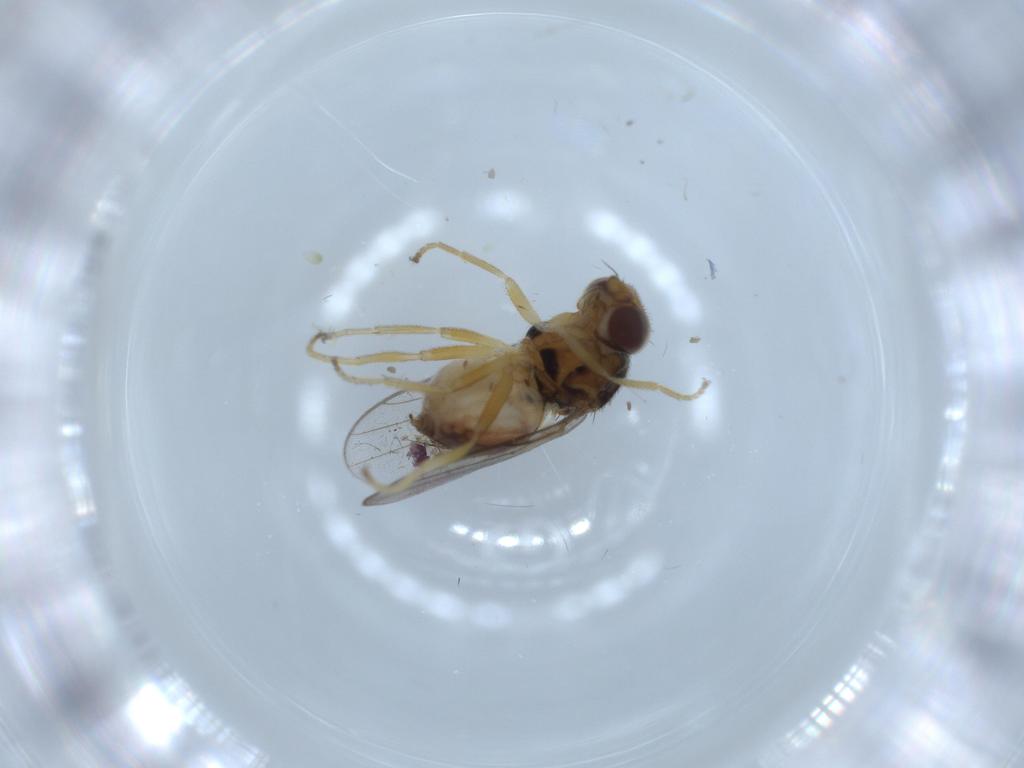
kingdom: Animalia
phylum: Arthropoda
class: Insecta
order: Diptera
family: Chloropidae
